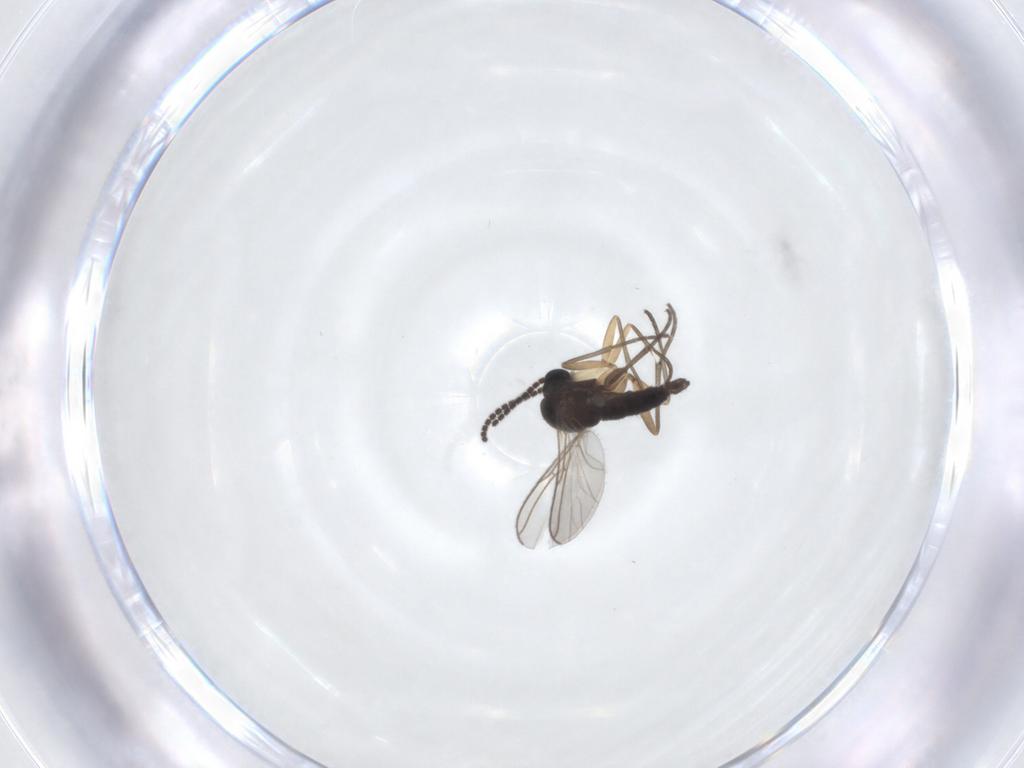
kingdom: Animalia
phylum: Arthropoda
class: Insecta
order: Diptera
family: Sciaridae
